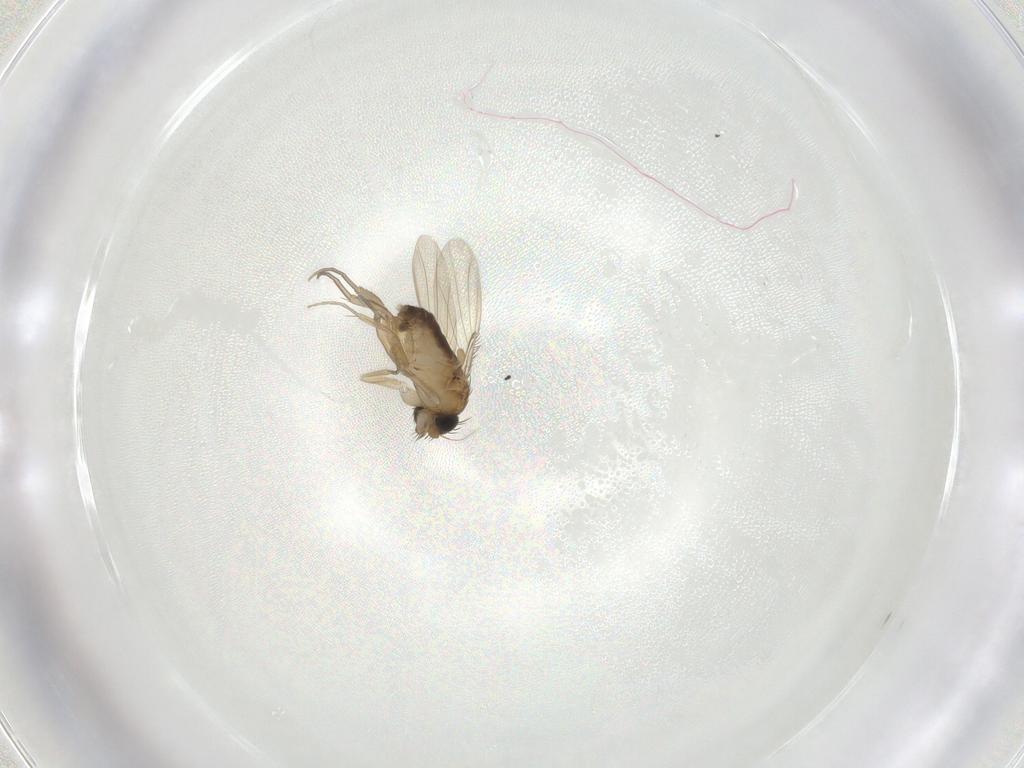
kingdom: Animalia
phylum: Arthropoda
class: Insecta
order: Diptera
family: Phoridae
